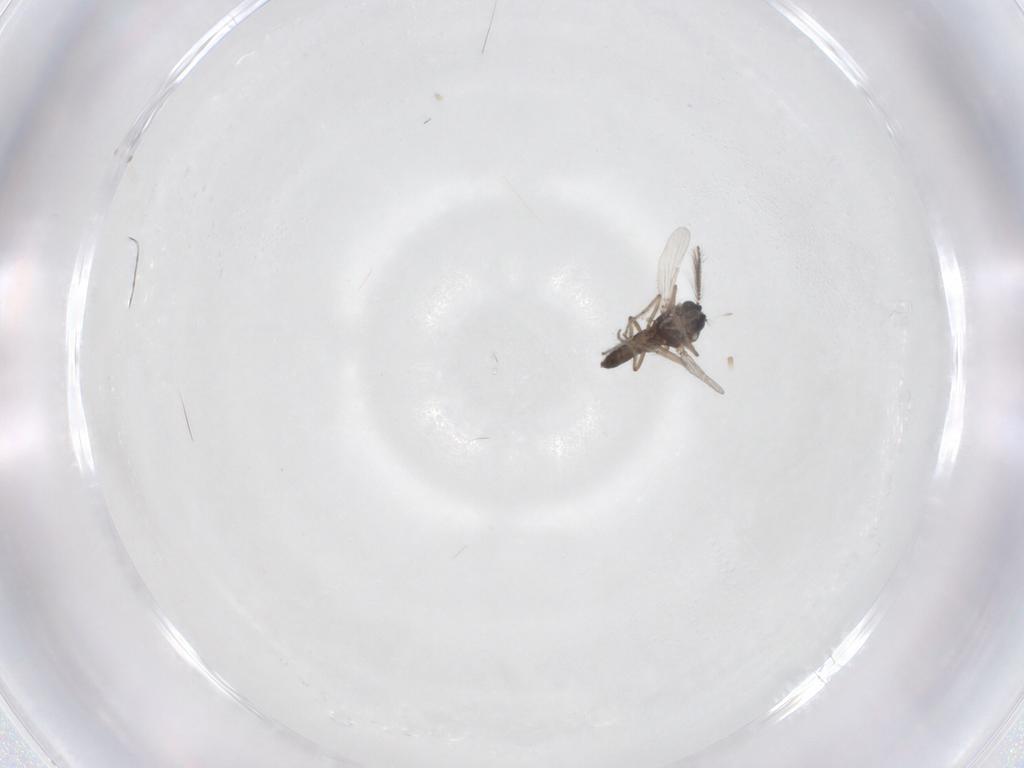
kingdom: Animalia
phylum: Arthropoda
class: Insecta
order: Diptera
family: Ceratopogonidae
